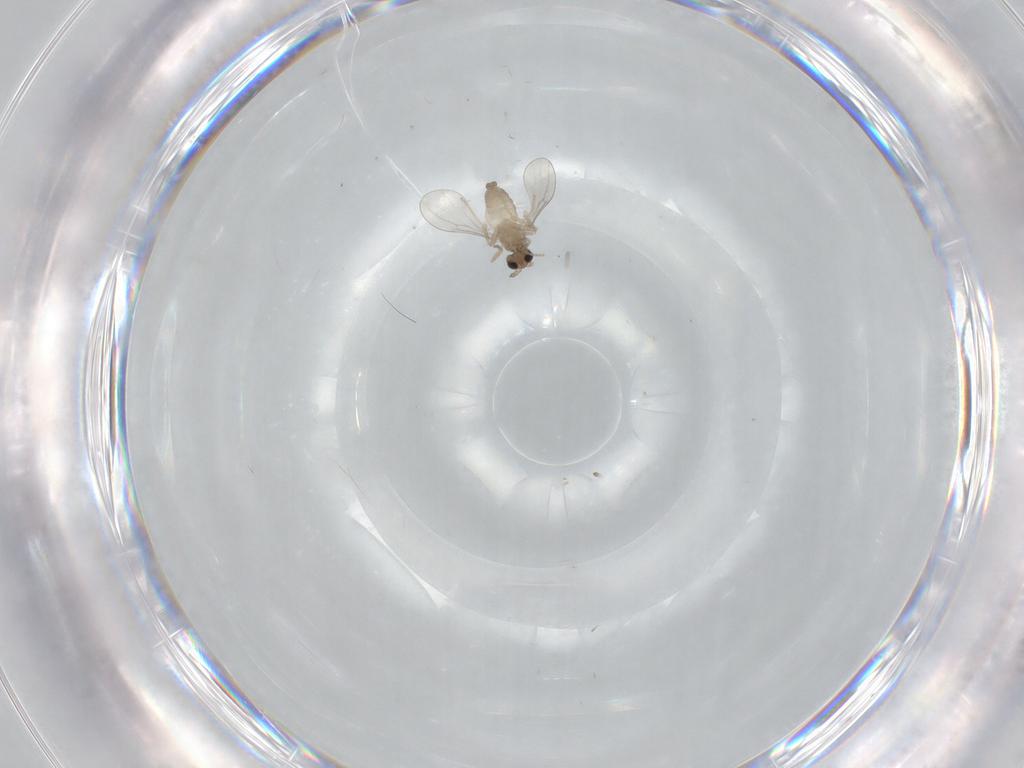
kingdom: Animalia
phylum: Arthropoda
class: Insecta
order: Diptera
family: Cecidomyiidae
